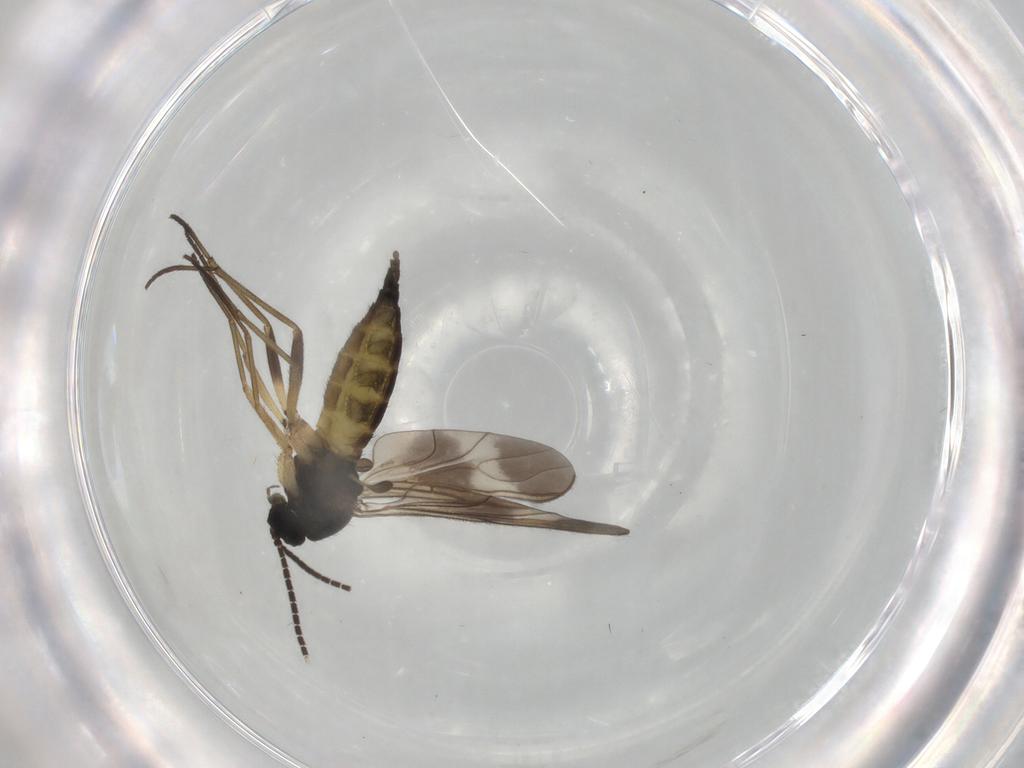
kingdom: Animalia
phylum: Arthropoda
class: Insecta
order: Diptera
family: Sciaridae
